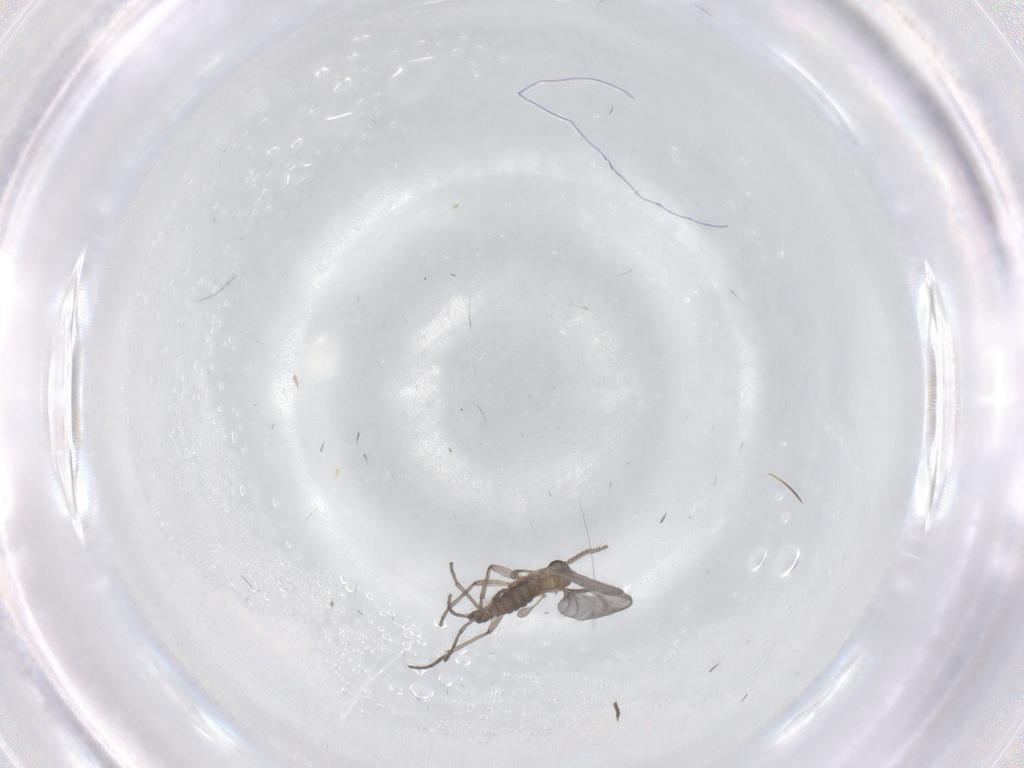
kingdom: Animalia
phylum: Arthropoda
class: Insecta
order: Diptera
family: Sciaridae
